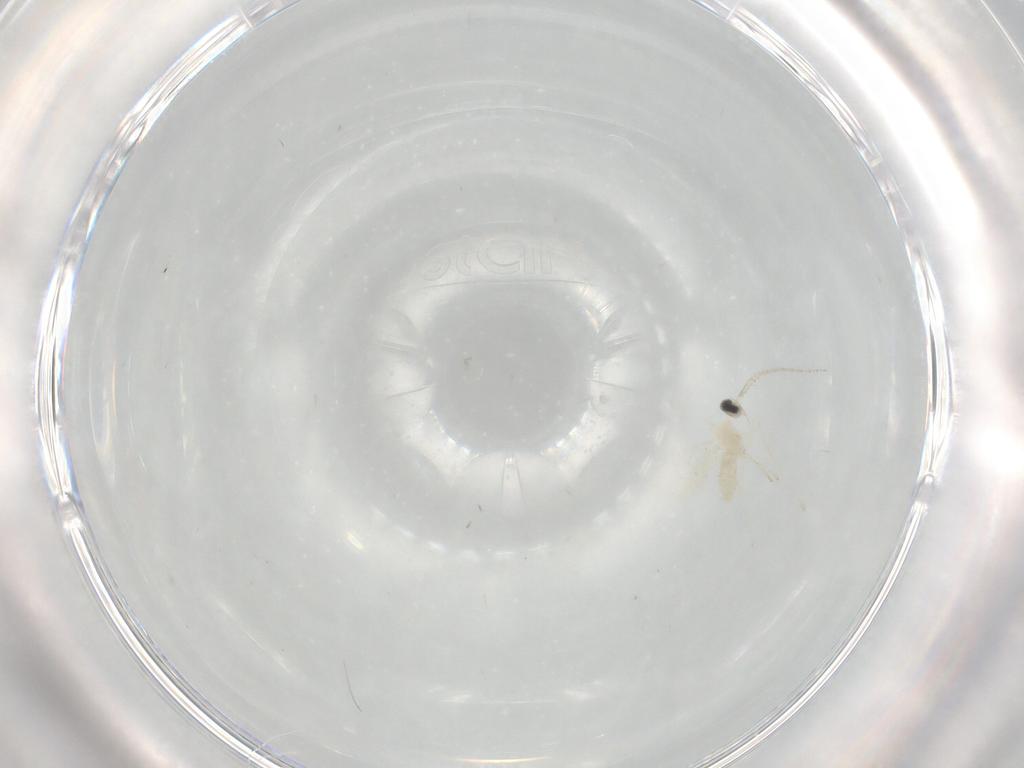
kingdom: Animalia
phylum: Arthropoda
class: Insecta
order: Diptera
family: Cecidomyiidae
